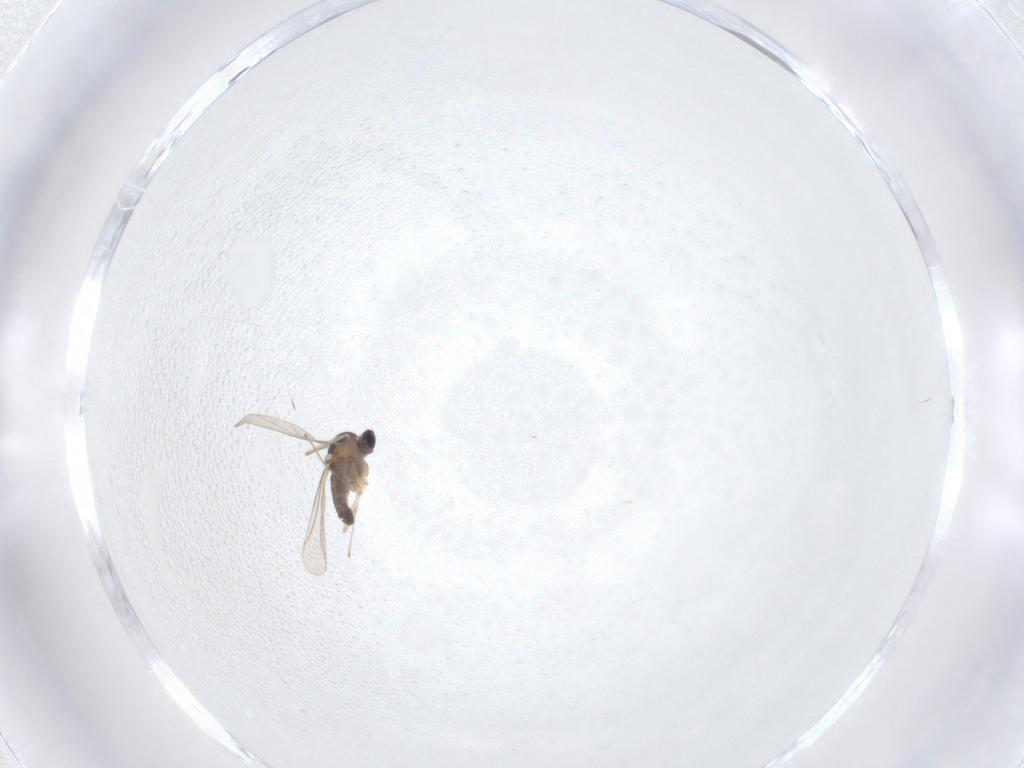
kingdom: Animalia
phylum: Arthropoda
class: Insecta
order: Diptera
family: Cecidomyiidae
